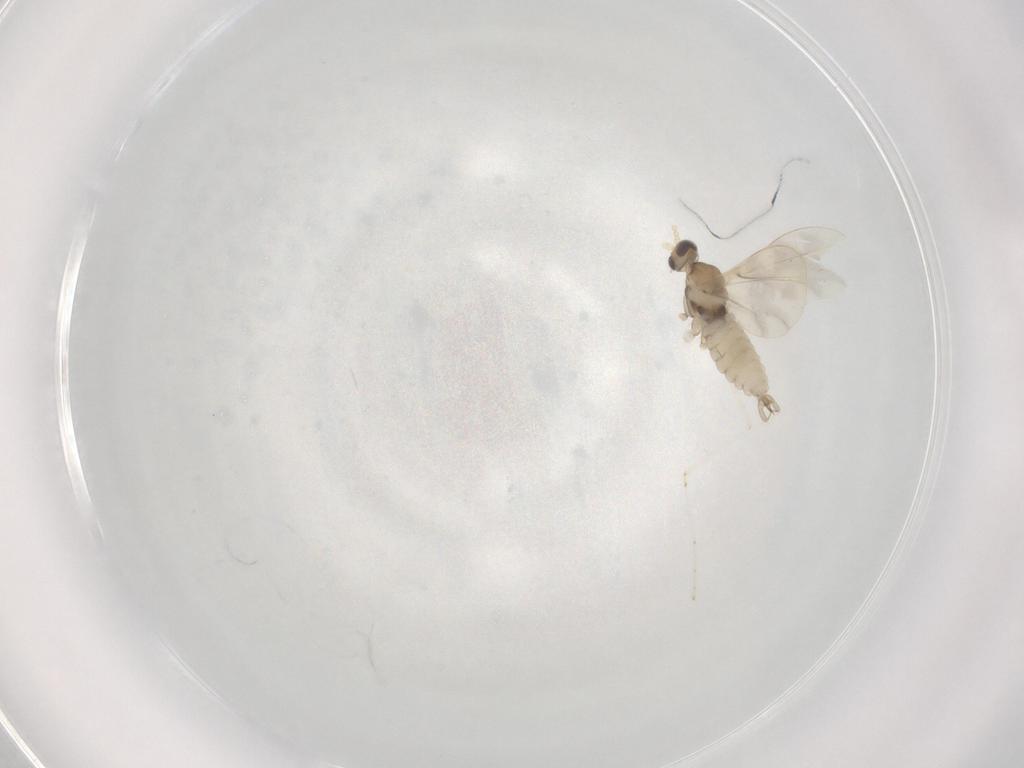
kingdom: Animalia
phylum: Arthropoda
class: Insecta
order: Diptera
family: Cecidomyiidae
